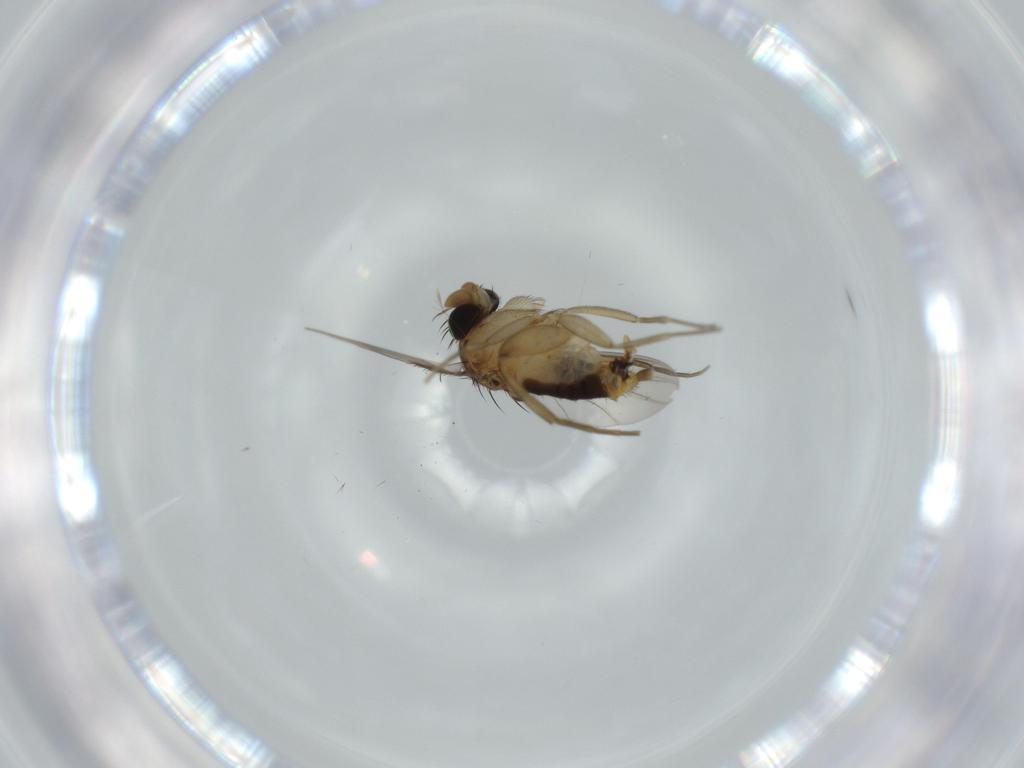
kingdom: Animalia
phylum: Arthropoda
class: Insecta
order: Diptera
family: Phoridae
